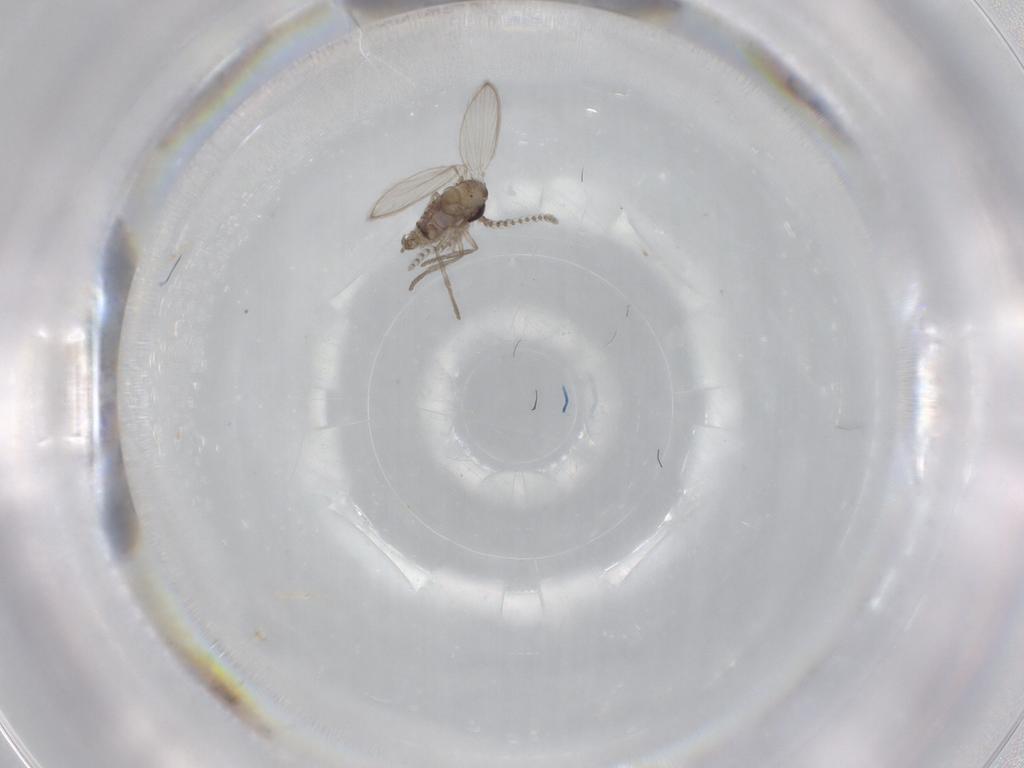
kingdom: Animalia
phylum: Arthropoda
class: Insecta
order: Diptera
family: Psychodidae
